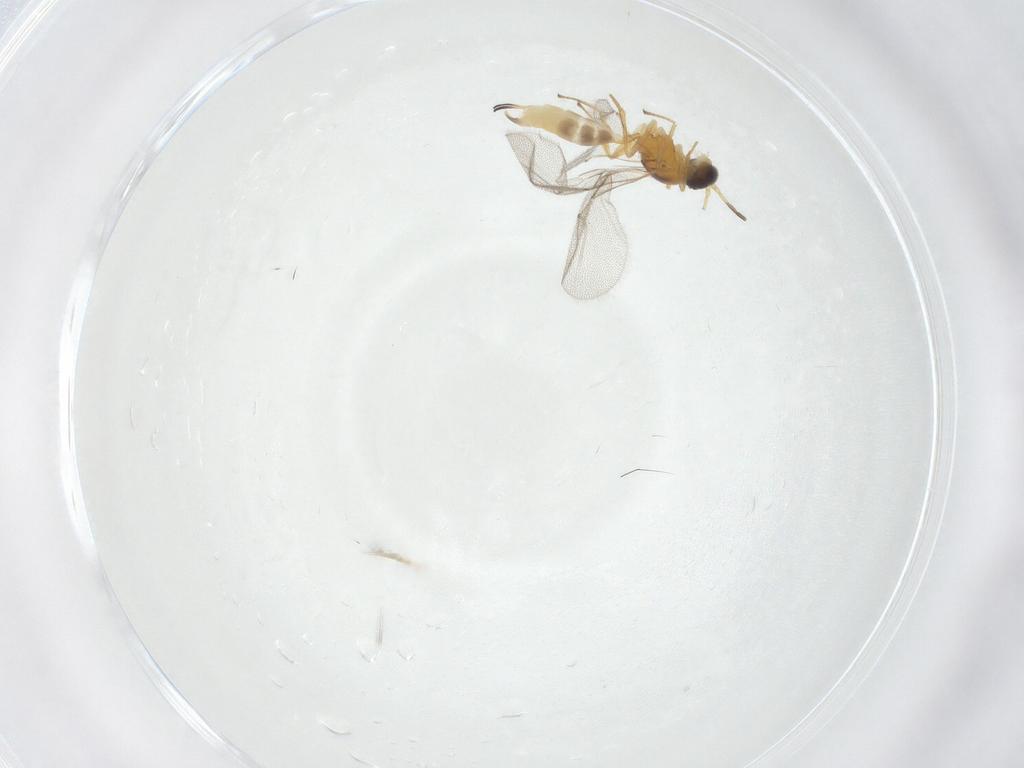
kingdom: Animalia
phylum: Arthropoda
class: Insecta
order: Hymenoptera
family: Braconidae
